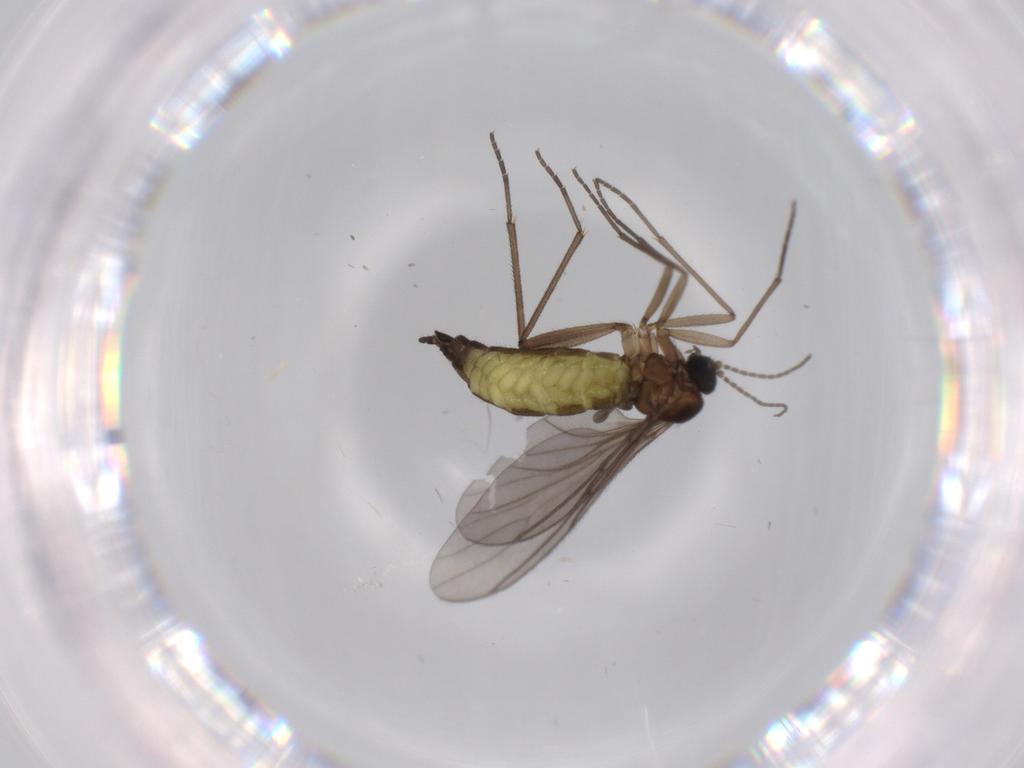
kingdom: Animalia
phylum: Arthropoda
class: Insecta
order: Diptera
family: Sciaridae
